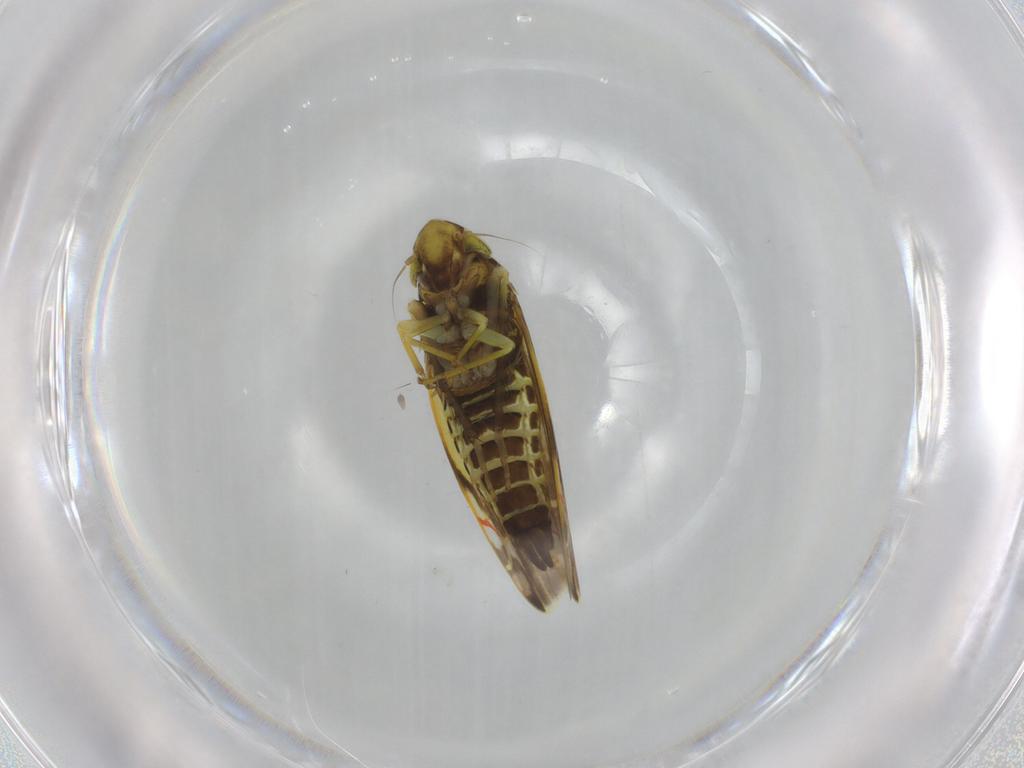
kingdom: Animalia
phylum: Arthropoda
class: Insecta
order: Hemiptera
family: Cicadellidae
